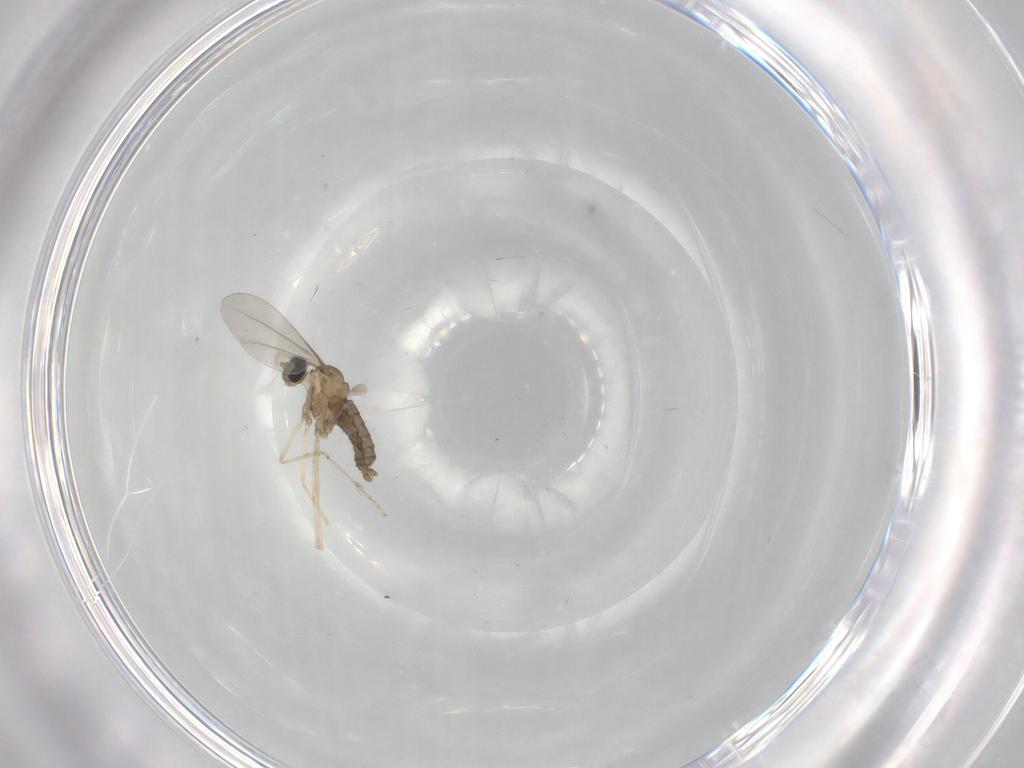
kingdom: Animalia
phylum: Arthropoda
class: Insecta
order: Diptera
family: Limoniidae
